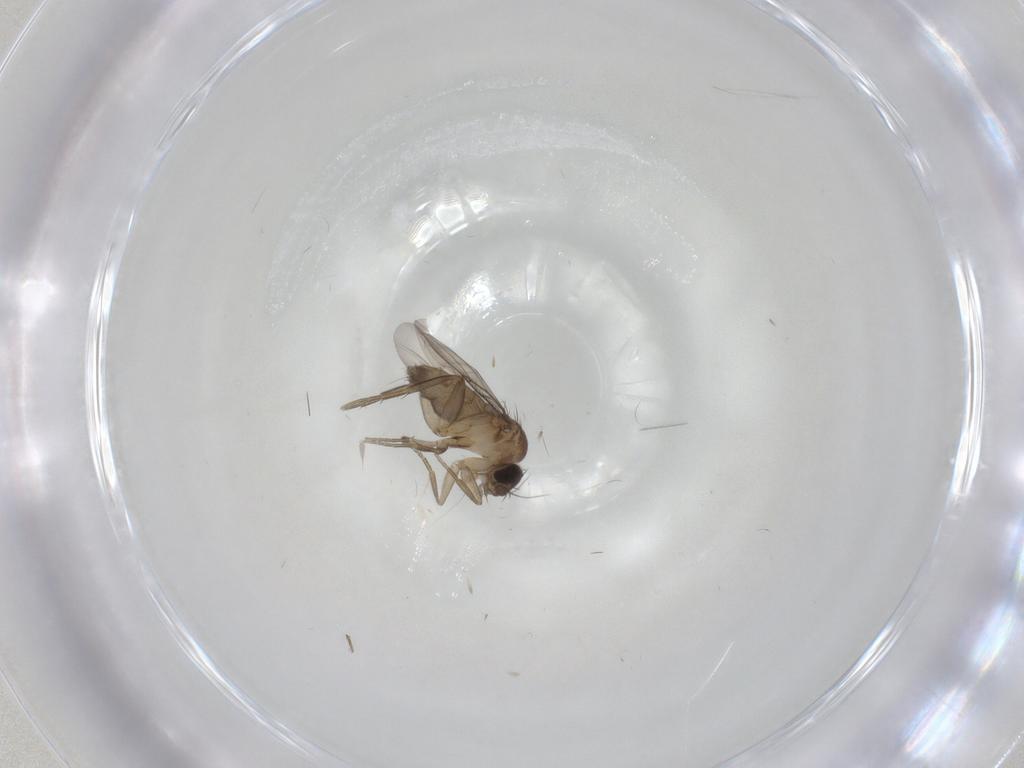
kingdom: Animalia
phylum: Arthropoda
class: Insecta
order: Diptera
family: Phoridae
